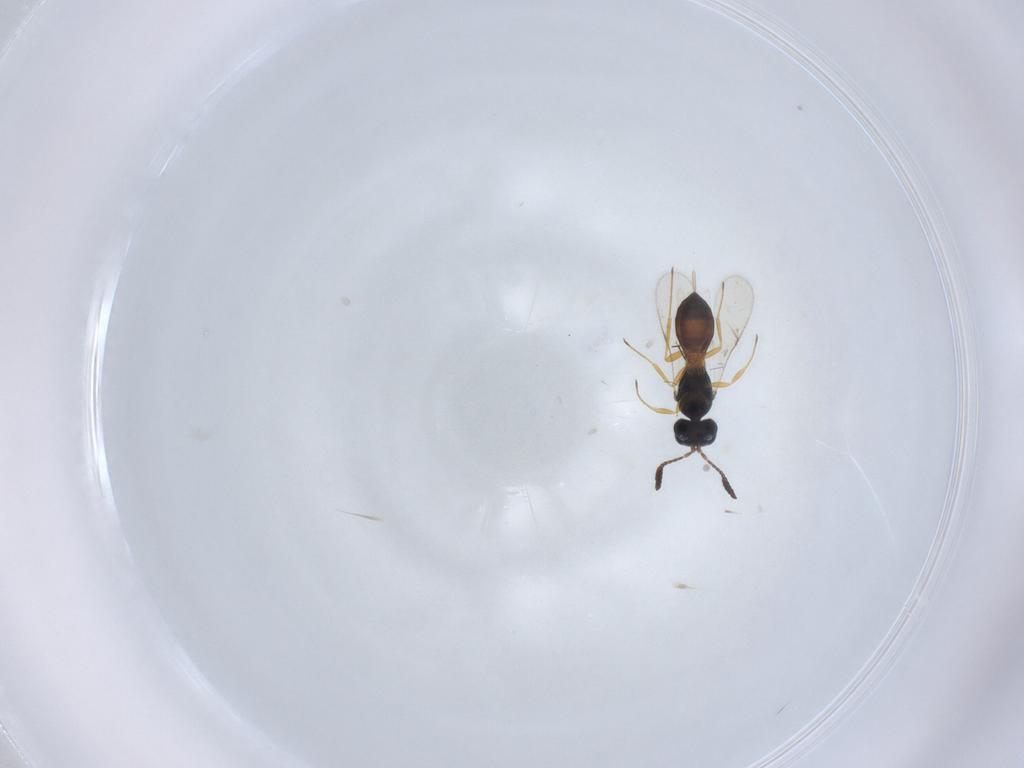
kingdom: Animalia
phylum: Arthropoda
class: Insecta
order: Hymenoptera
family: Scelionidae
